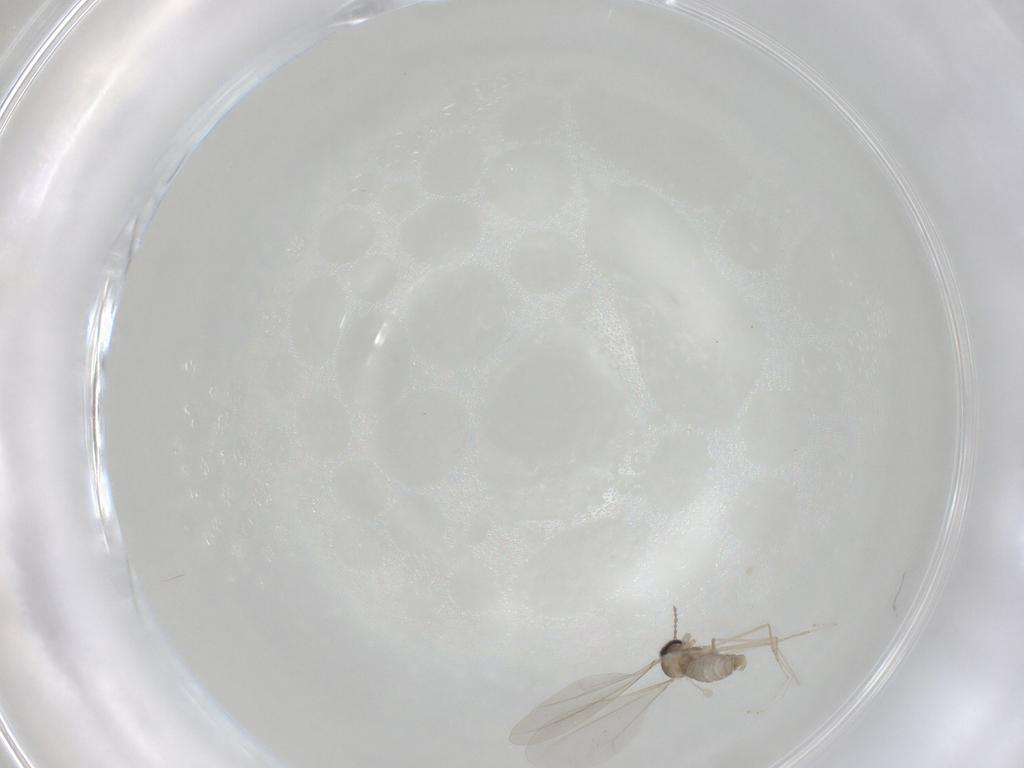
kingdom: Animalia
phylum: Arthropoda
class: Insecta
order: Diptera
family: Cecidomyiidae
